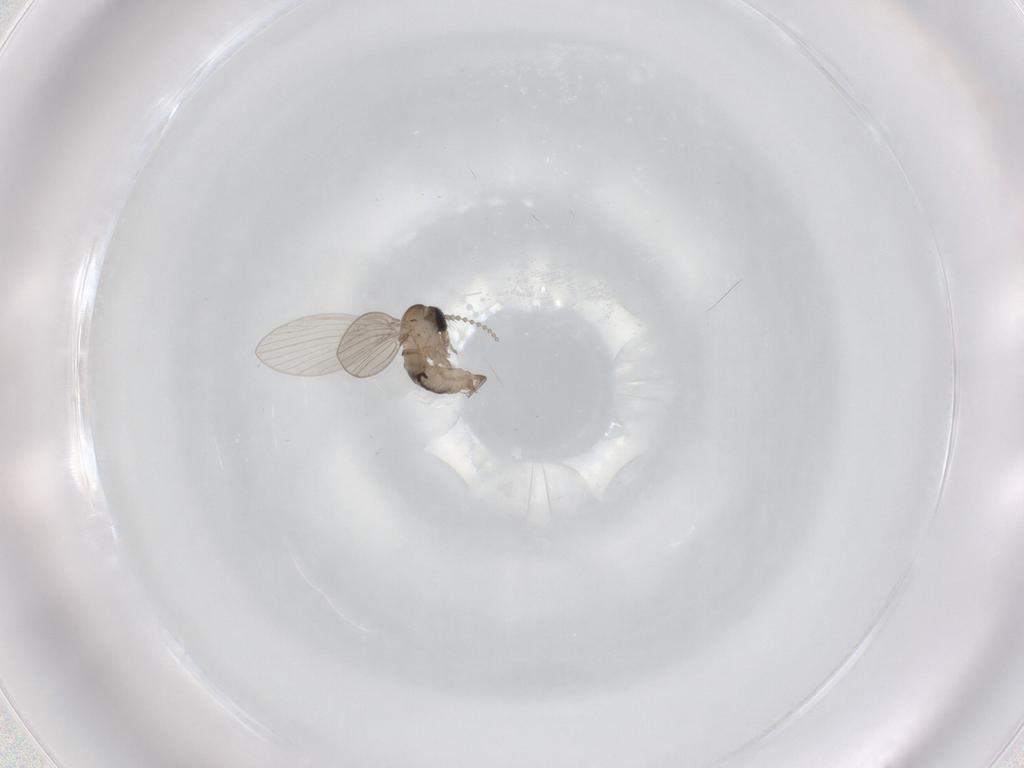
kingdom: Animalia
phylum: Arthropoda
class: Insecta
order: Diptera
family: Psychodidae
